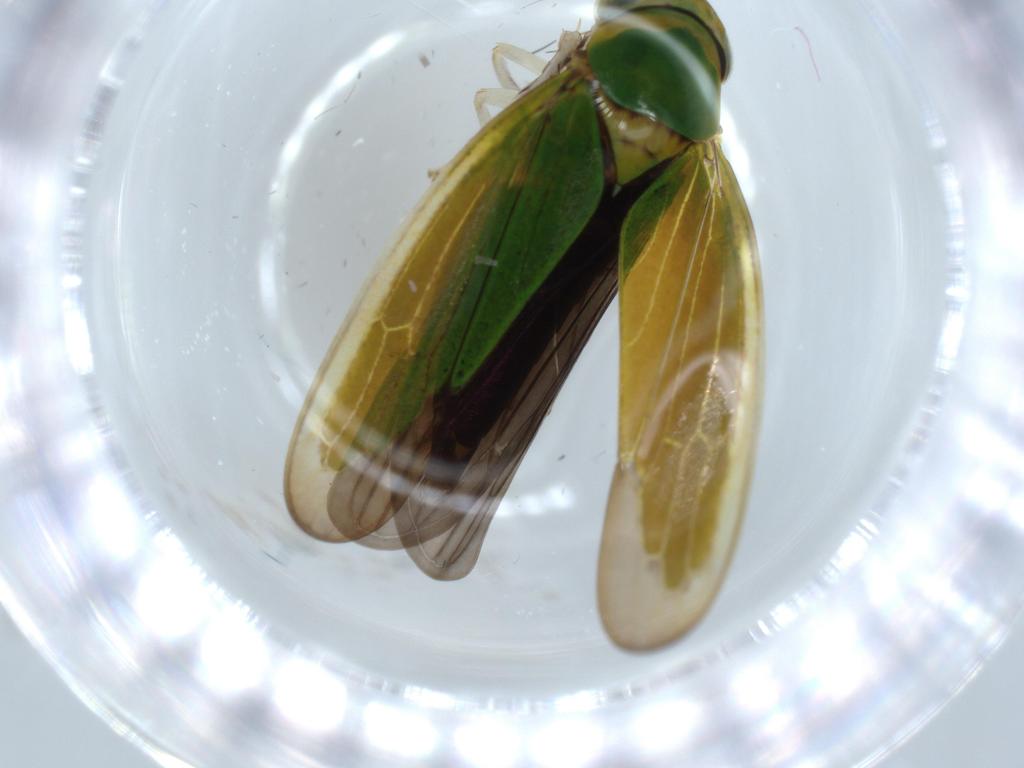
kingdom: Animalia
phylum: Arthropoda
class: Insecta
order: Hemiptera
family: Cicadellidae
